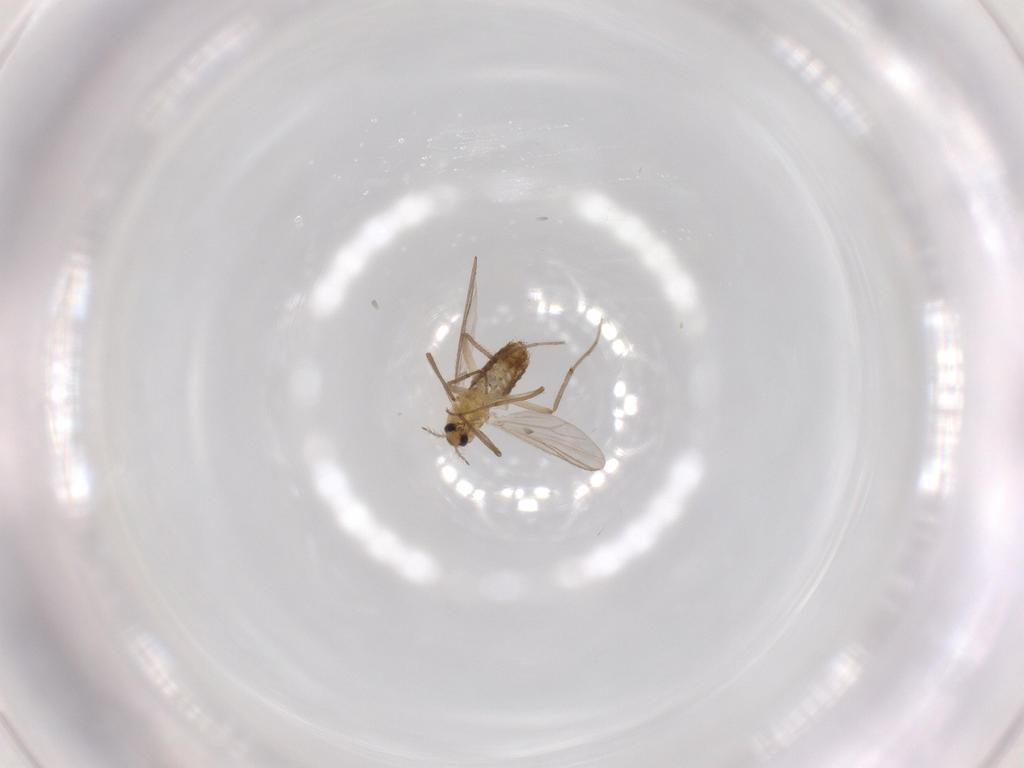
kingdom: Animalia
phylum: Arthropoda
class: Insecta
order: Diptera
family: Chironomidae
